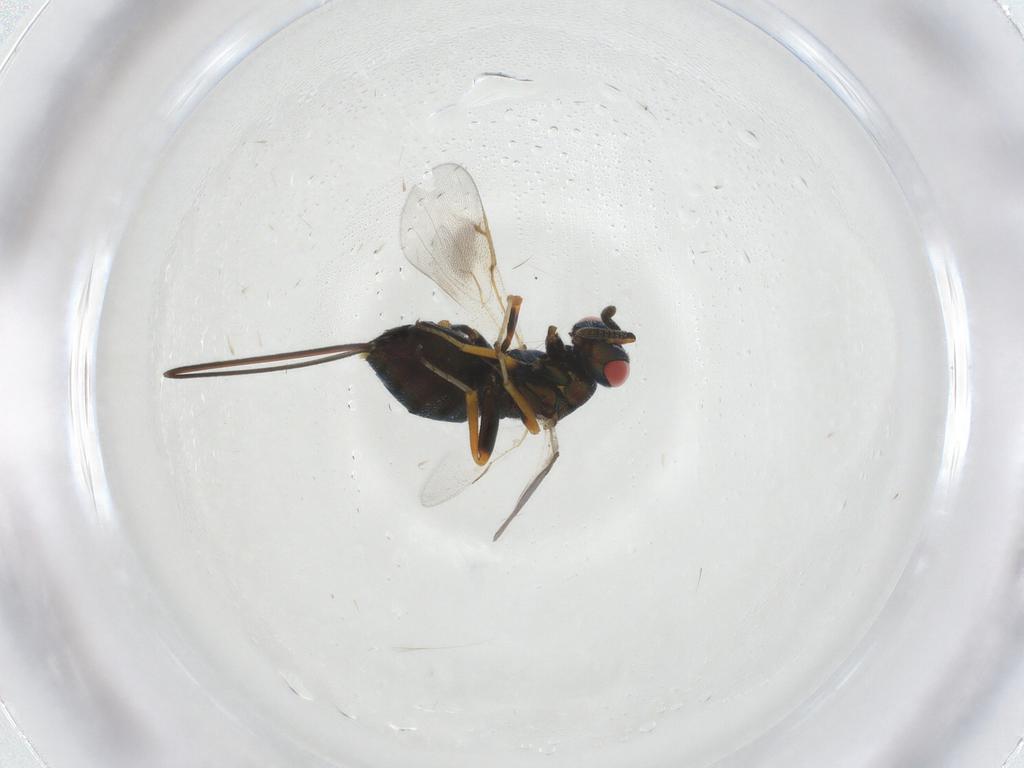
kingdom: Animalia
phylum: Arthropoda
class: Insecta
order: Hymenoptera
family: Torymidae
